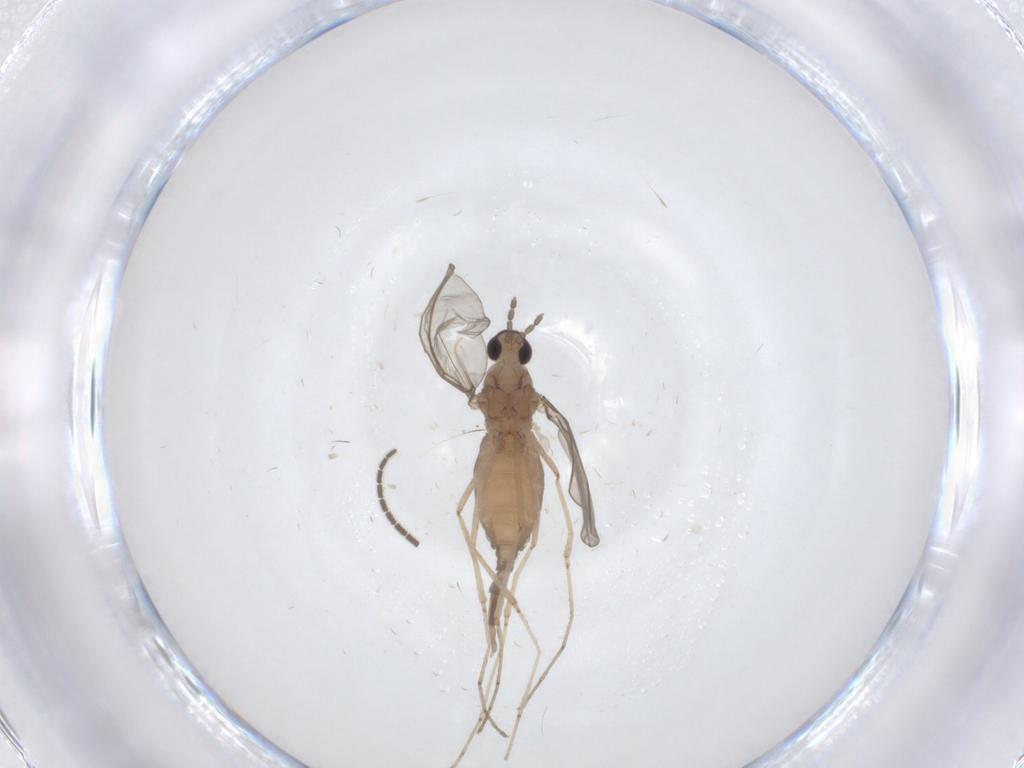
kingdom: Animalia
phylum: Arthropoda
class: Insecta
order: Diptera
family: Sciaridae
